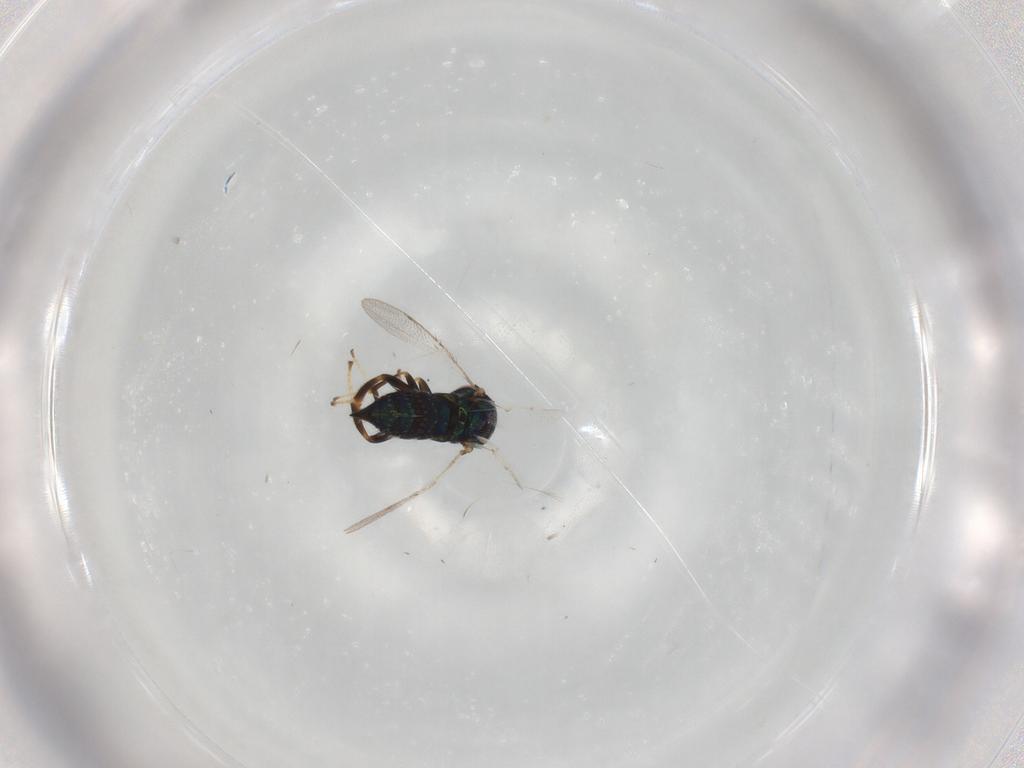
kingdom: Animalia
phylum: Arthropoda
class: Insecta
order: Hymenoptera
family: Ormyridae
